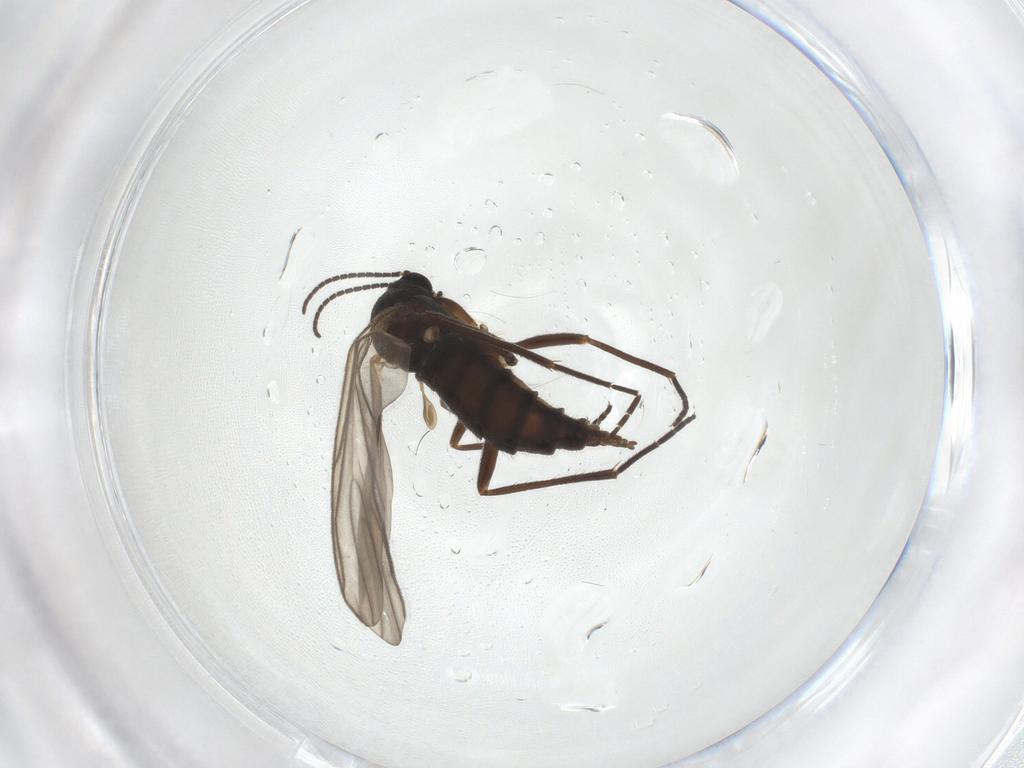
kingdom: Animalia
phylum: Arthropoda
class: Insecta
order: Diptera
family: Sciaridae
